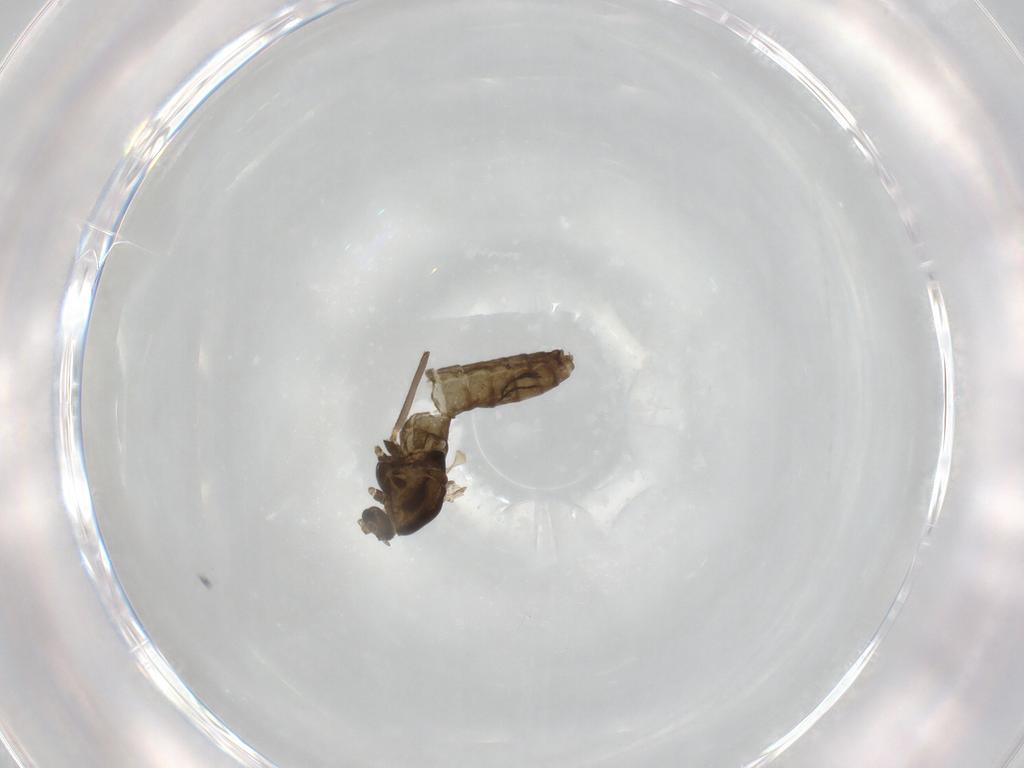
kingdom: Animalia
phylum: Arthropoda
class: Insecta
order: Diptera
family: Chironomidae
